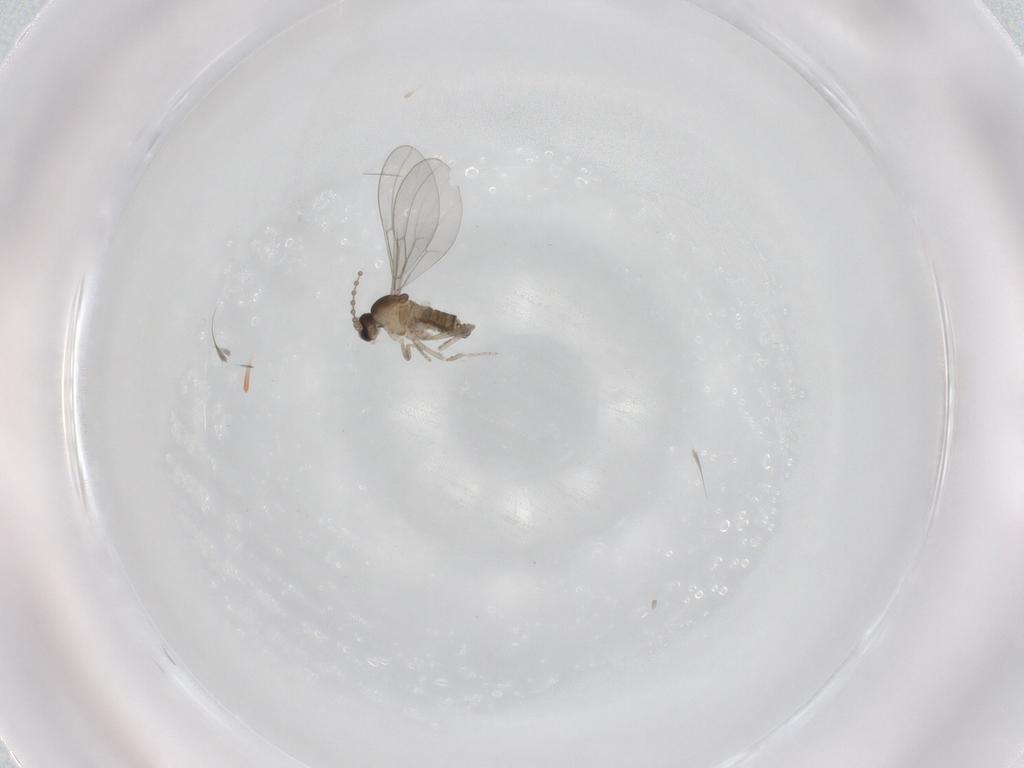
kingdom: Animalia
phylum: Arthropoda
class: Insecta
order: Diptera
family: Cecidomyiidae
